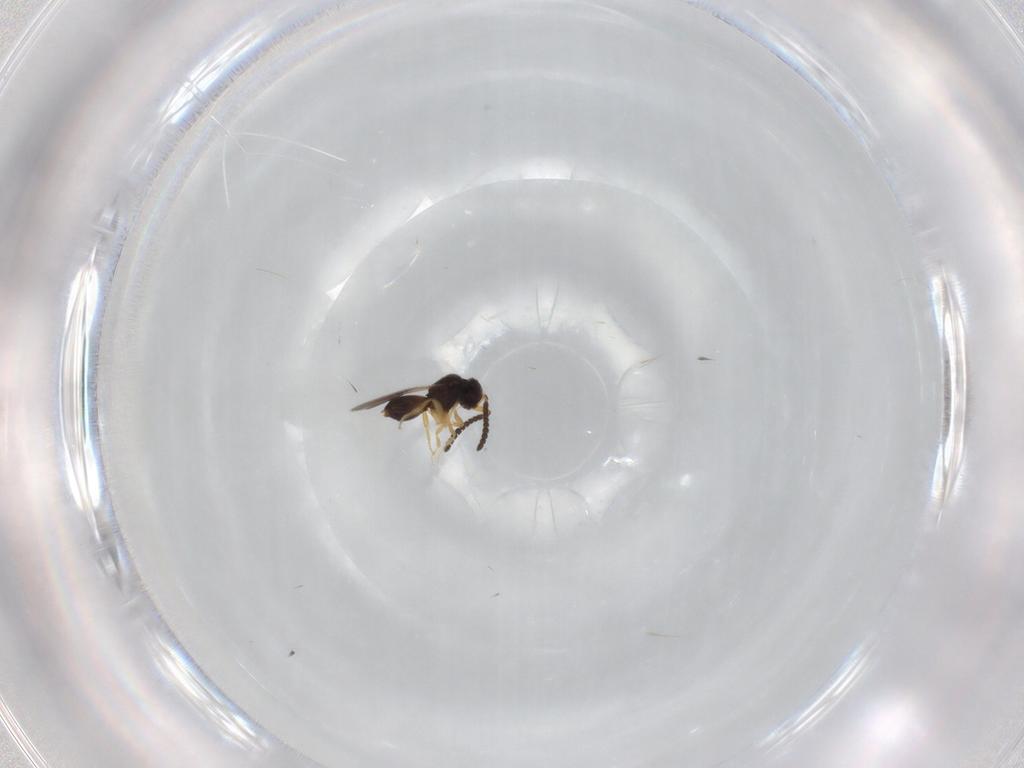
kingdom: Animalia
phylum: Arthropoda
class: Insecta
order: Hymenoptera
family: Ceraphronidae
